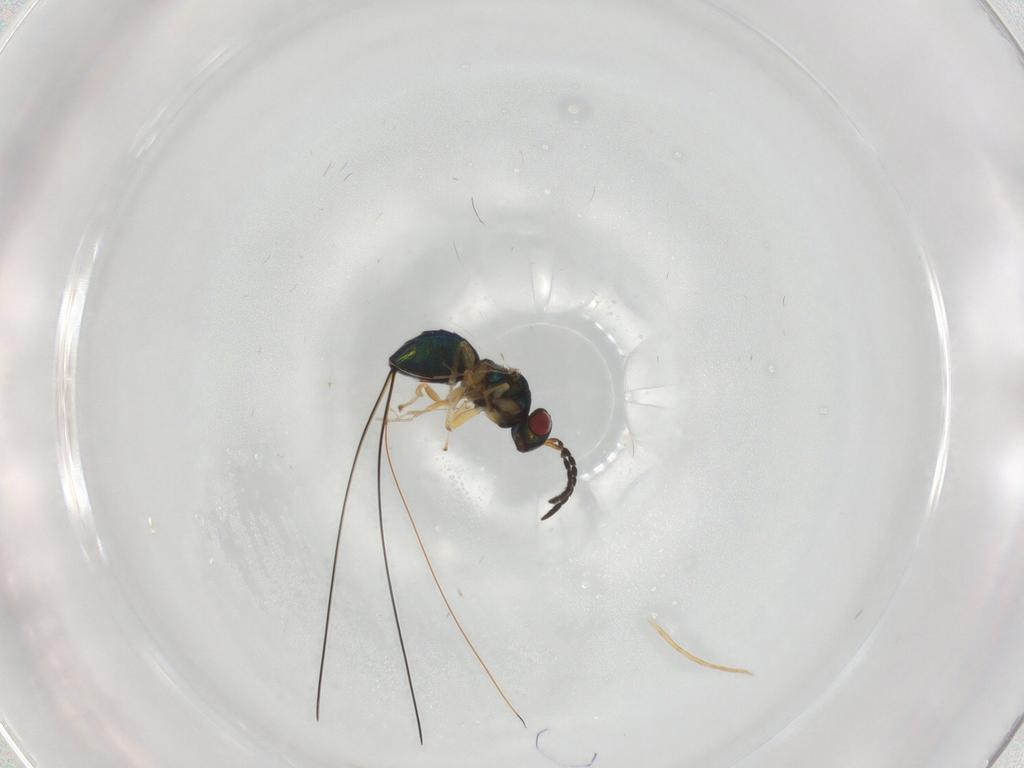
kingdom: Animalia
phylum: Arthropoda
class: Insecta
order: Hymenoptera
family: Agaonidae
